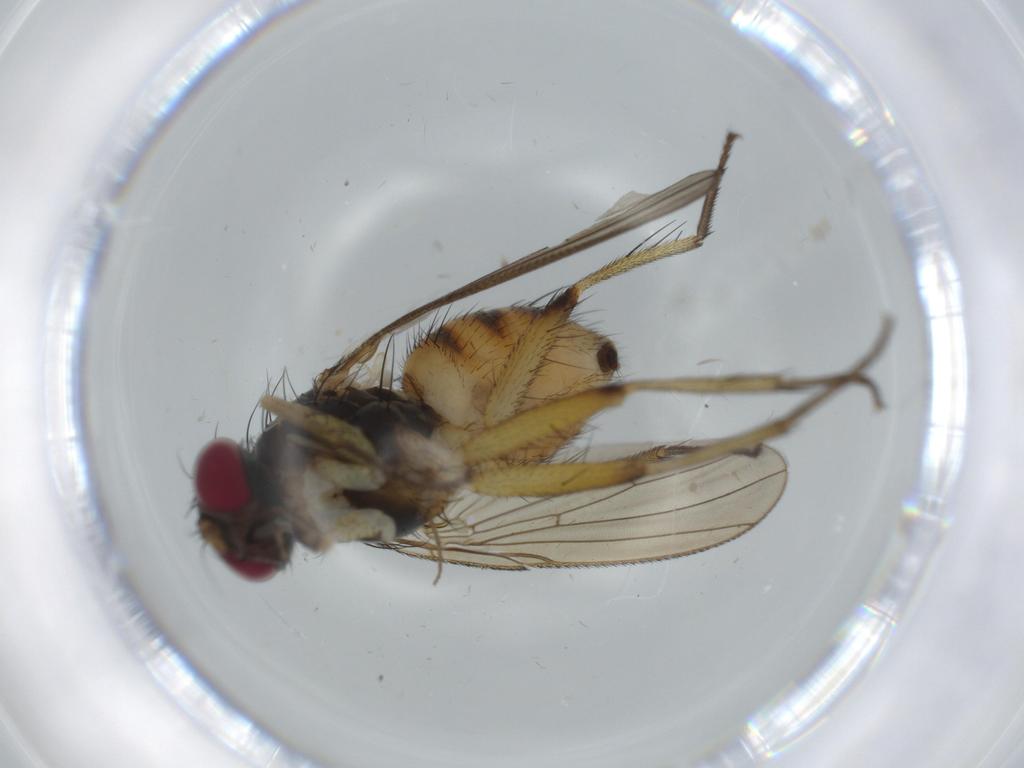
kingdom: Animalia
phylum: Arthropoda
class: Insecta
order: Diptera
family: Muscidae
